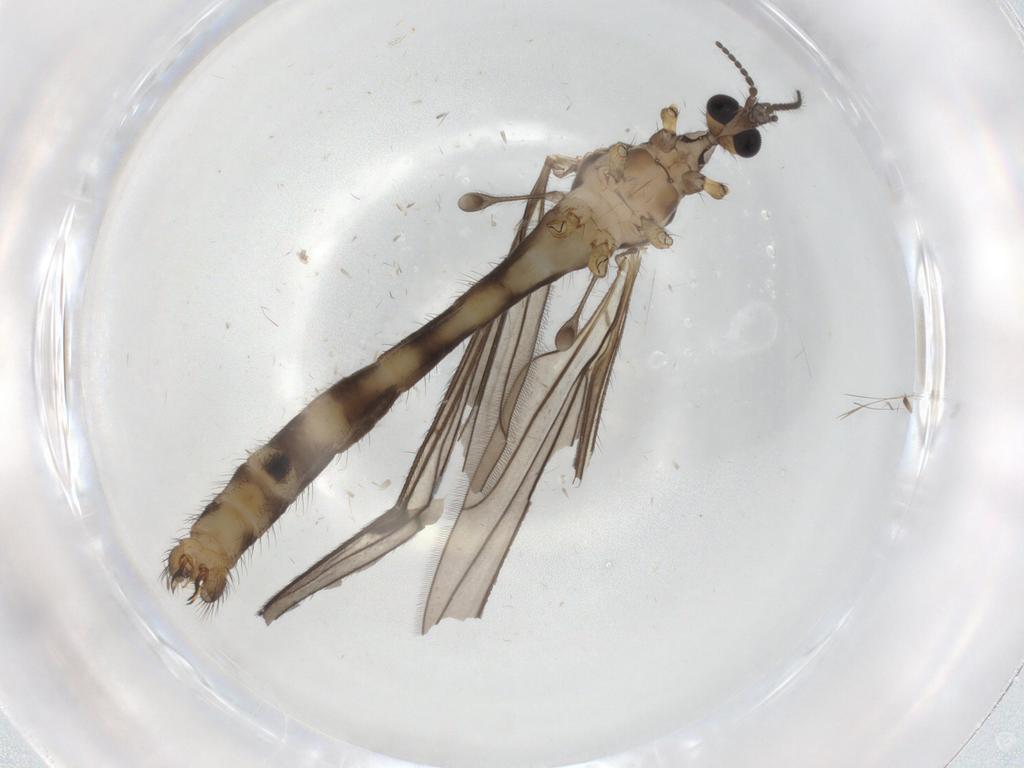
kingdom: Animalia
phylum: Arthropoda
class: Insecta
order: Diptera
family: Limoniidae
